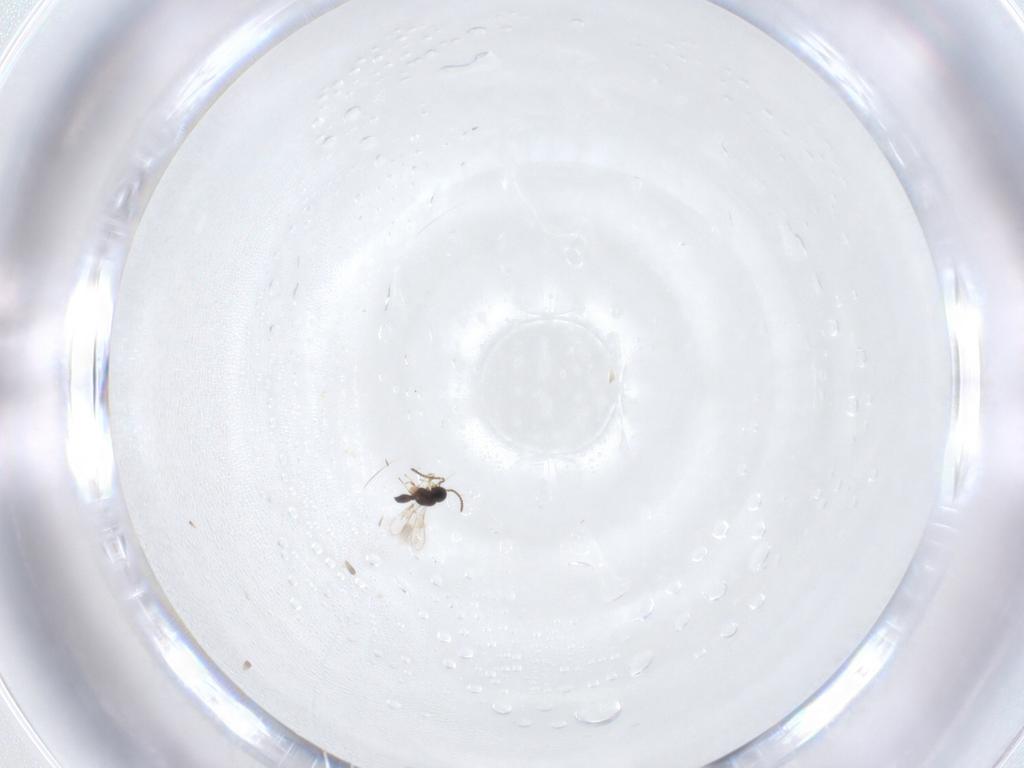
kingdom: Animalia
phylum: Arthropoda
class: Insecta
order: Hymenoptera
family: Scelionidae
